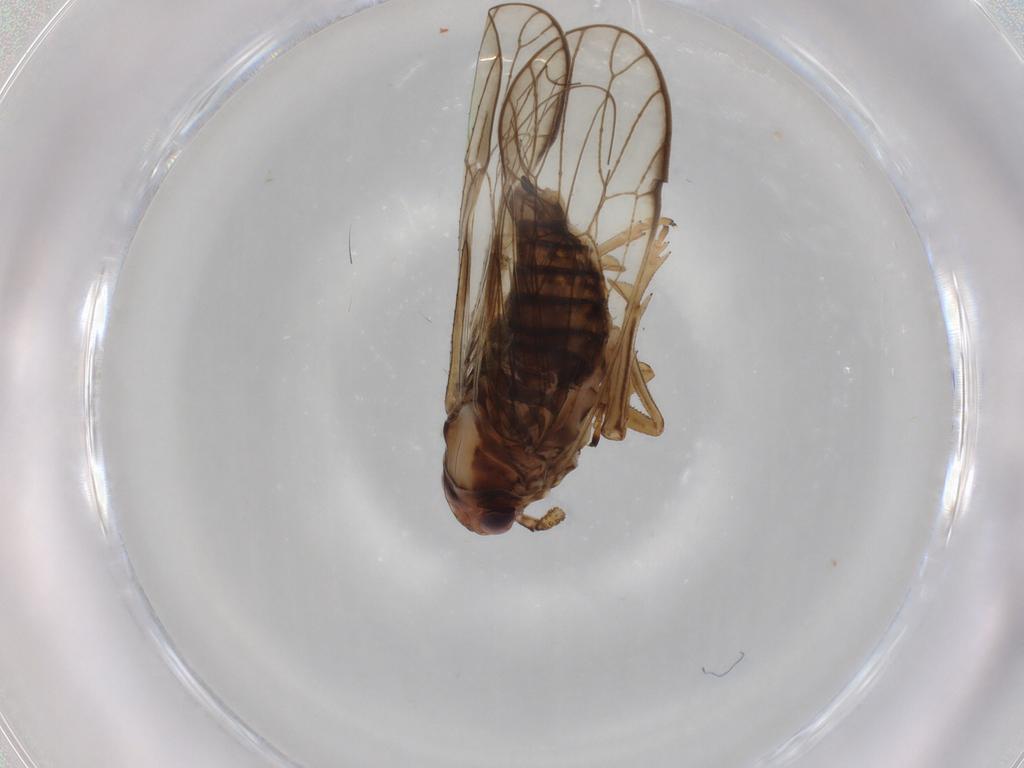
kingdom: Animalia
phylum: Arthropoda
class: Insecta
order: Hemiptera
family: Delphacidae
